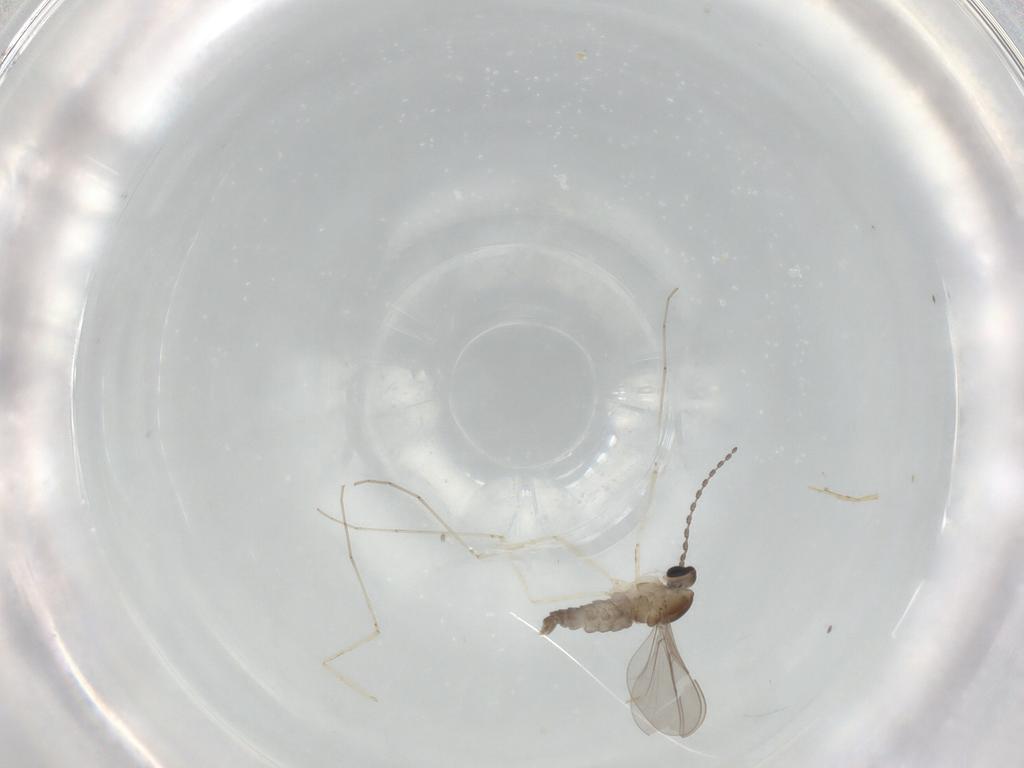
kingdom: Animalia
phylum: Arthropoda
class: Insecta
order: Diptera
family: Cecidomyiidae
